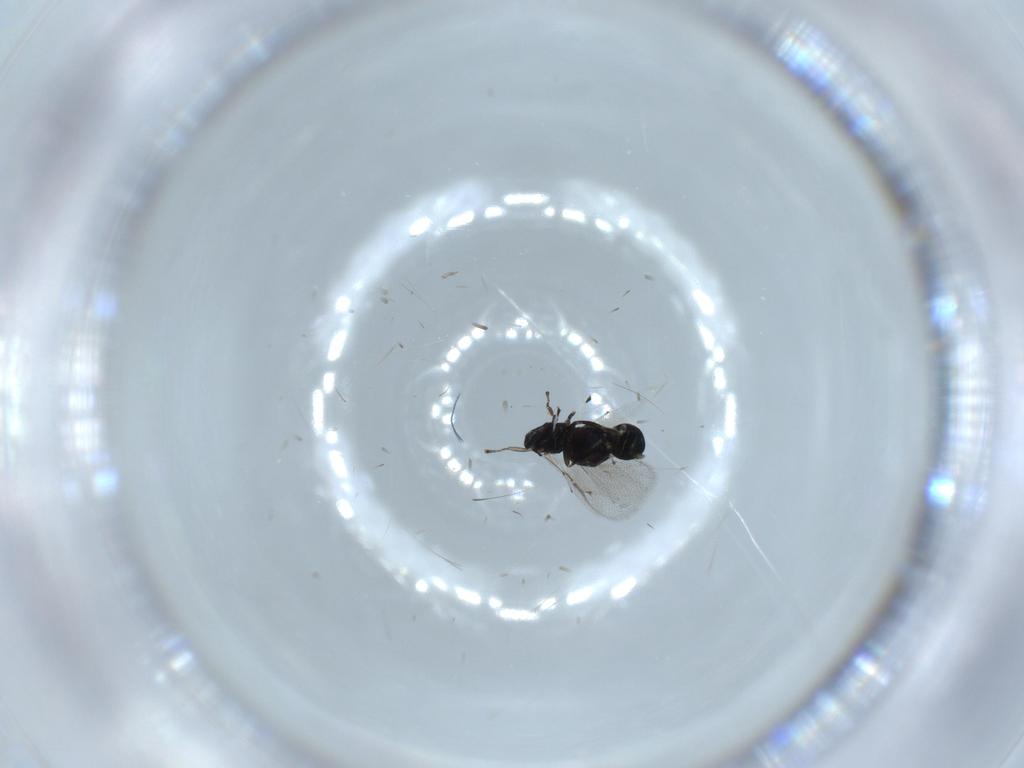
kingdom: Animalia
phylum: Arthropoda
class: Insecta
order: Hymenoptera
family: Eulophidae
